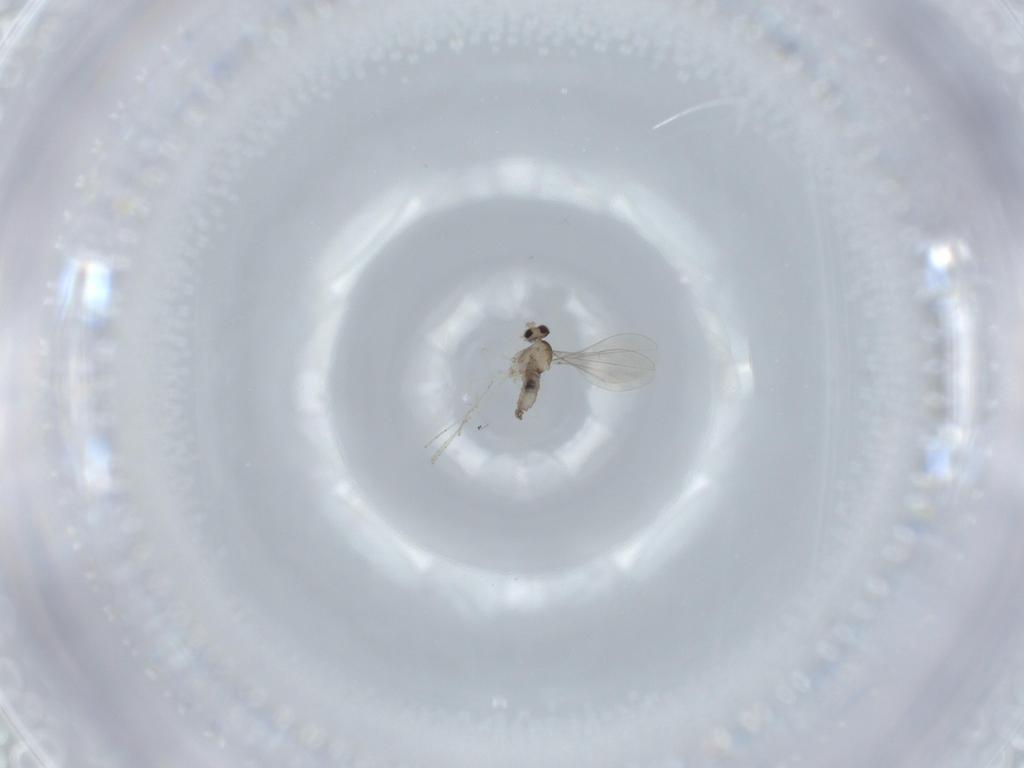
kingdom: Animalia
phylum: Arthropoda
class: Insecta
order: Diptera
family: Cecidomyiidae
